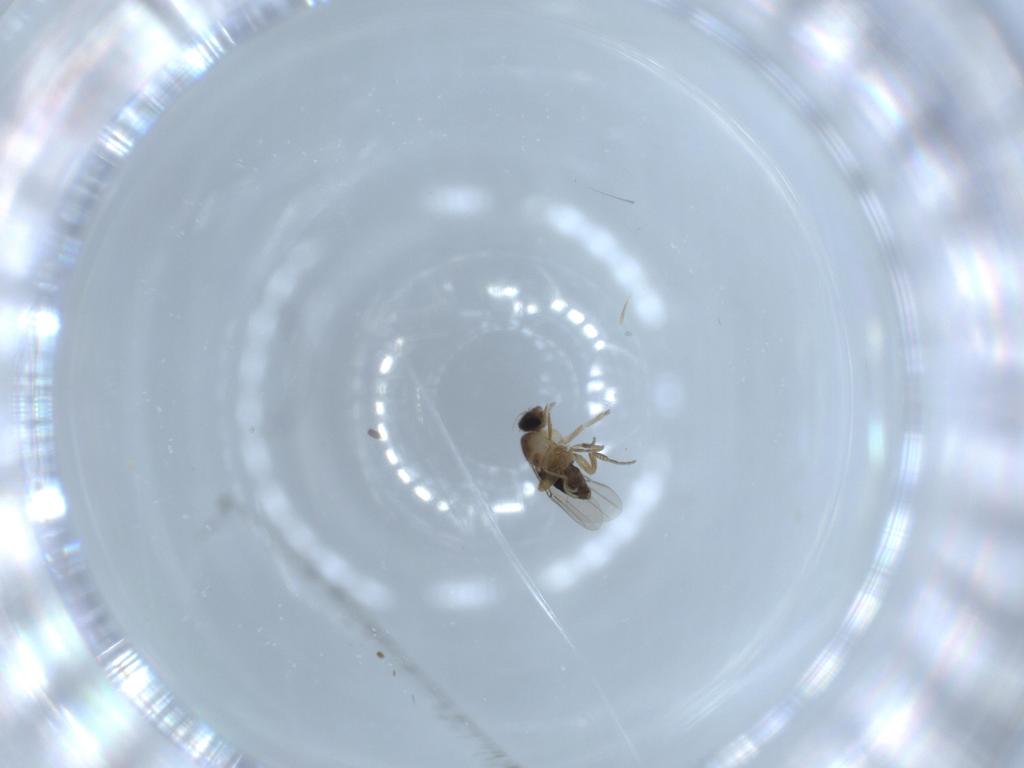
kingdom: Animalia
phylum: Arthropoda
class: Insecta
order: Diptera
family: Phoridae
